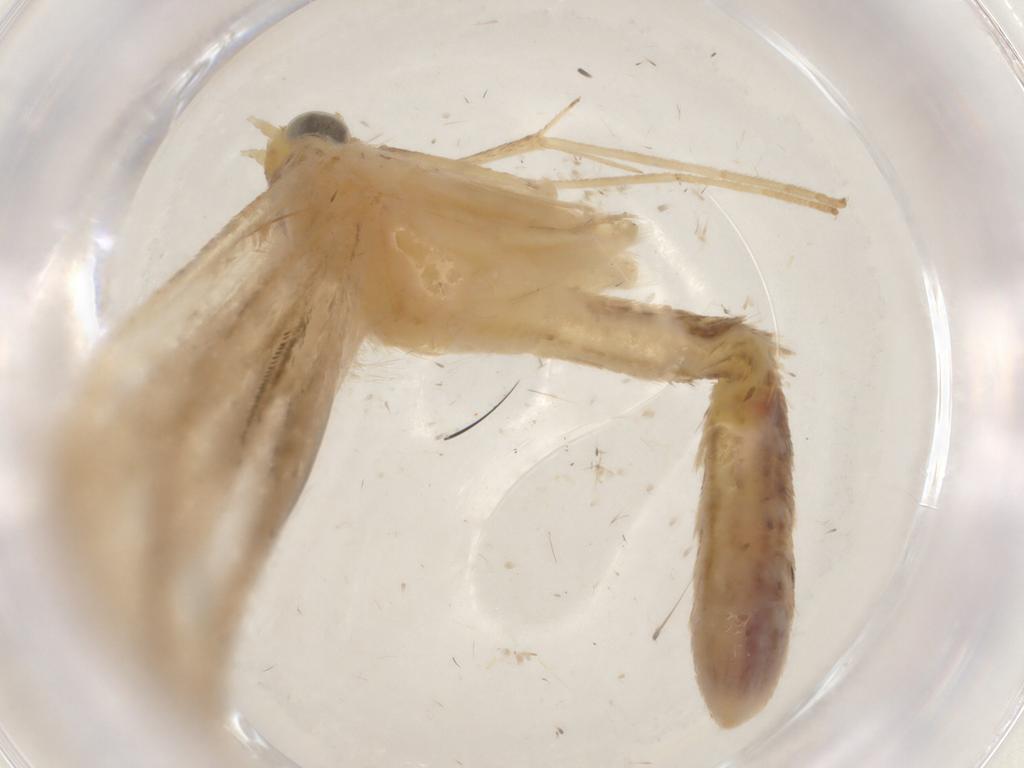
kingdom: Animalia
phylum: Arthropoda
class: Insecta
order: Lepidoptera
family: Pterophoridae
